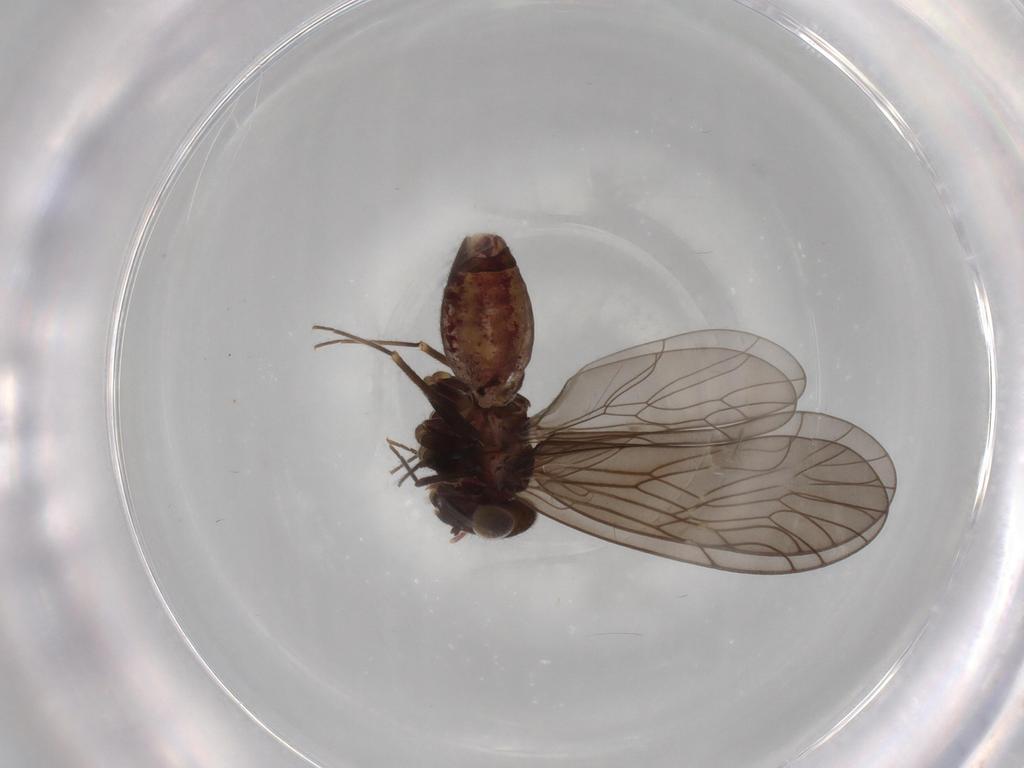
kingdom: Animalia
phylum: Arthropoda
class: Insecta
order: Psocodea
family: Philotarsidae
